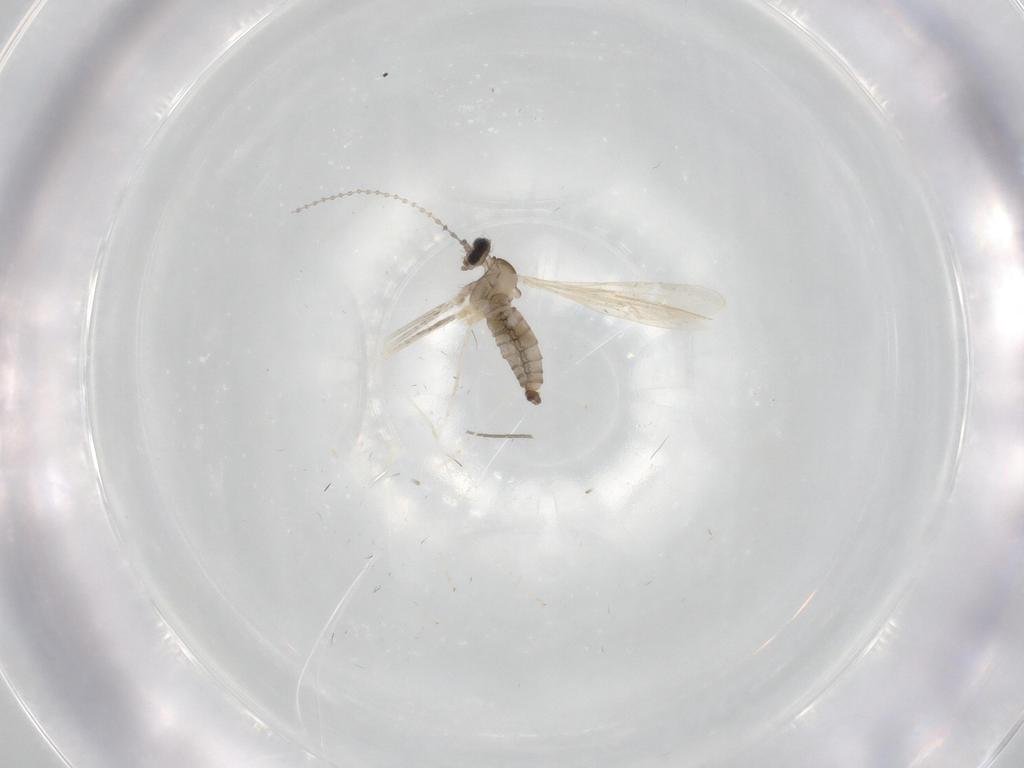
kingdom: Animalia
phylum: Arthropoda
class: Insecta
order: Diptera
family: Cecidomyiidae
